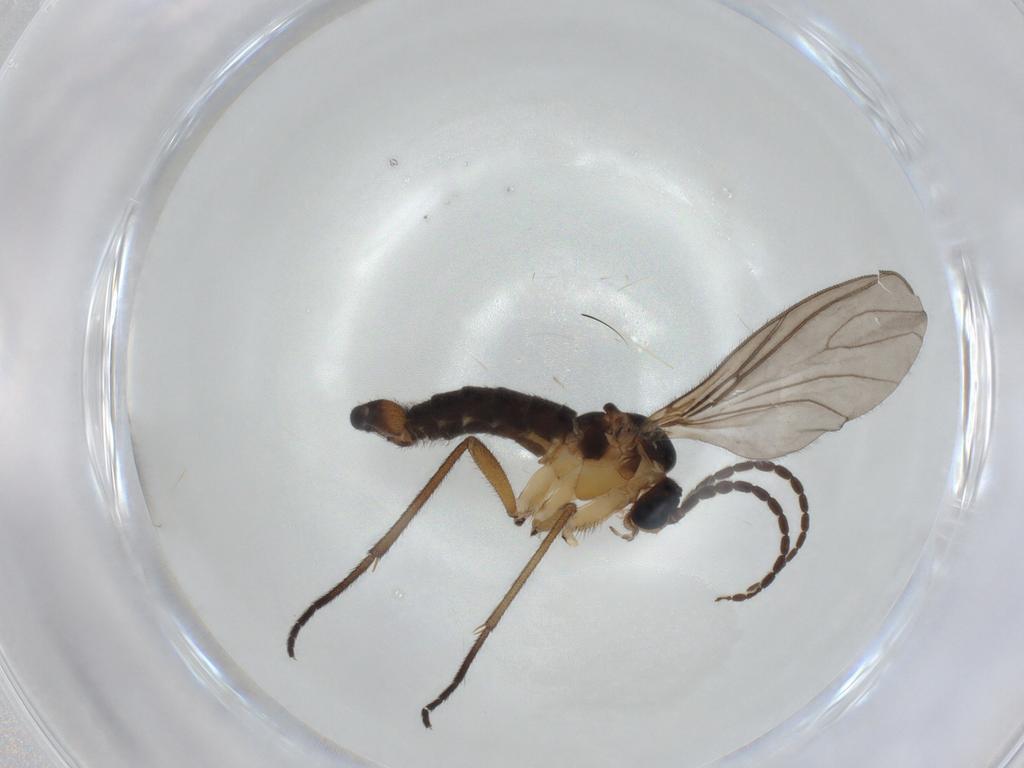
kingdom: Animalia
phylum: Arthropoda
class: Insecta
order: Diptera
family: Sciaridae
